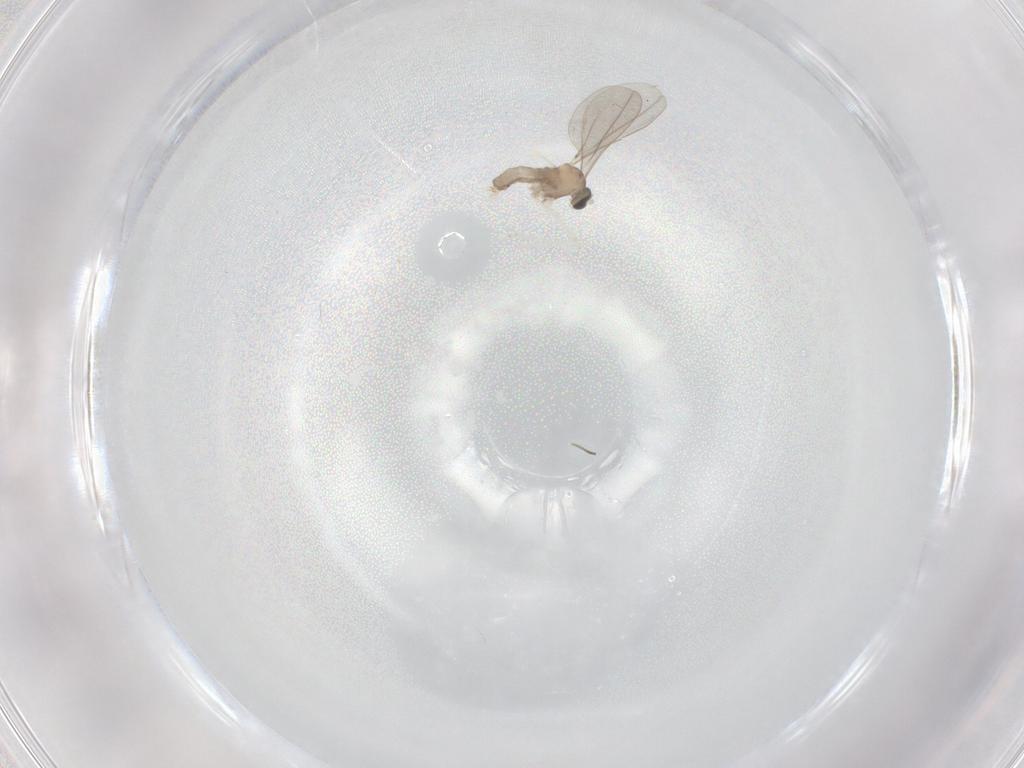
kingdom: Animalia
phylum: Arthropoda
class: Insecta
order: Diptera
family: Cecidomyiidae
